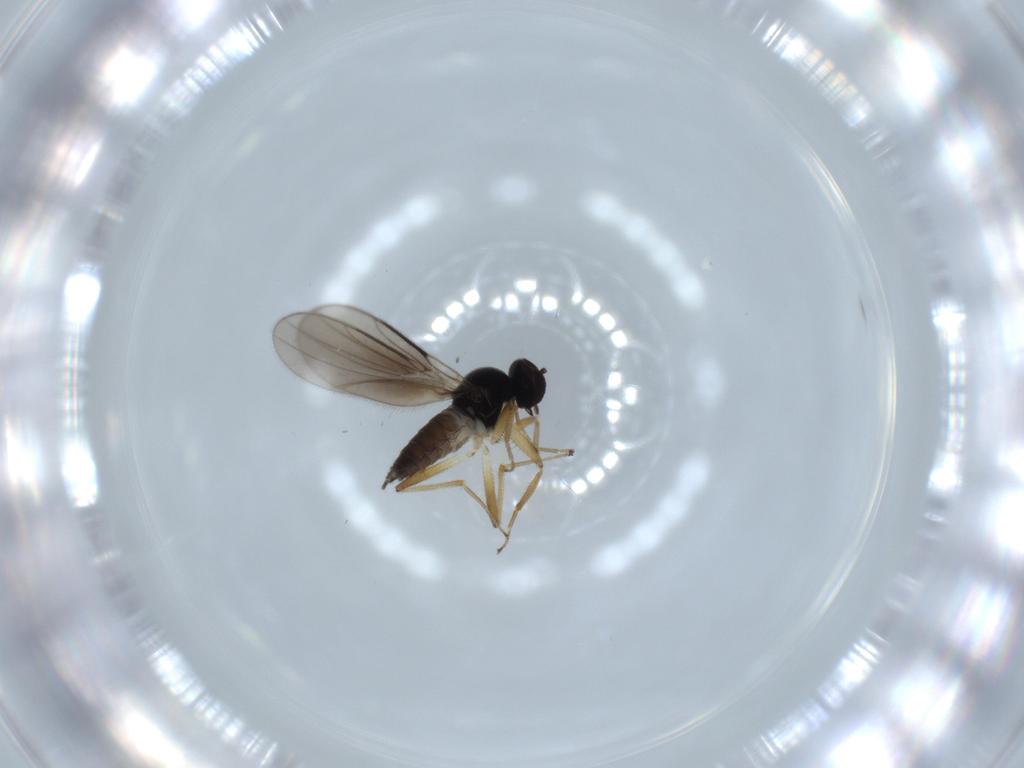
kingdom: Animalia
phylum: Arthropoda
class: Insecta
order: Diptera
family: Hybotidae
